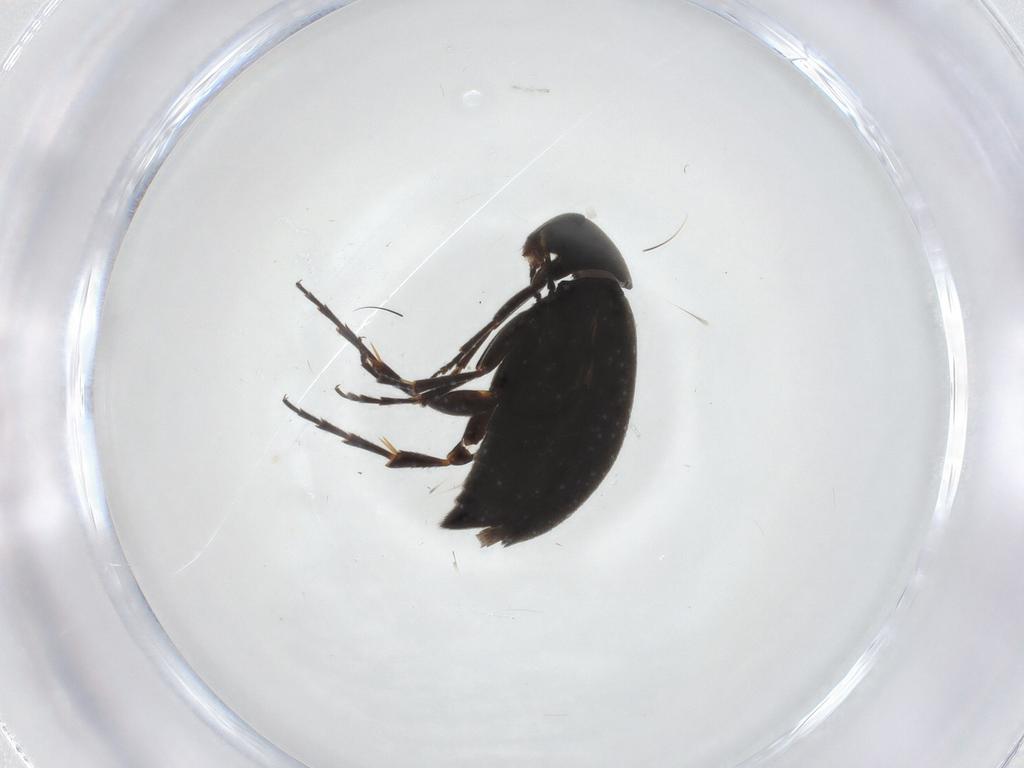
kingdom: Animalia
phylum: Arthropoda
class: Insecta
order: Coleoptera
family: Scraptiidae
